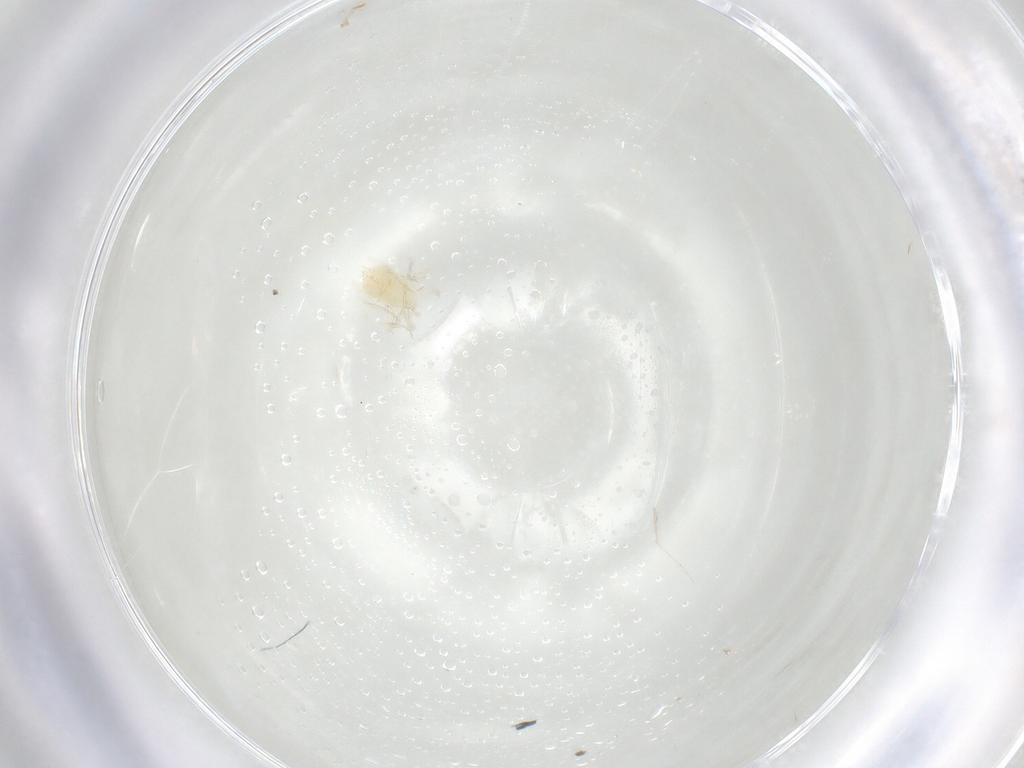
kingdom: Animalia
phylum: Arthropoda
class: Arachnida
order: Trombidiformes
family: Anystidae
